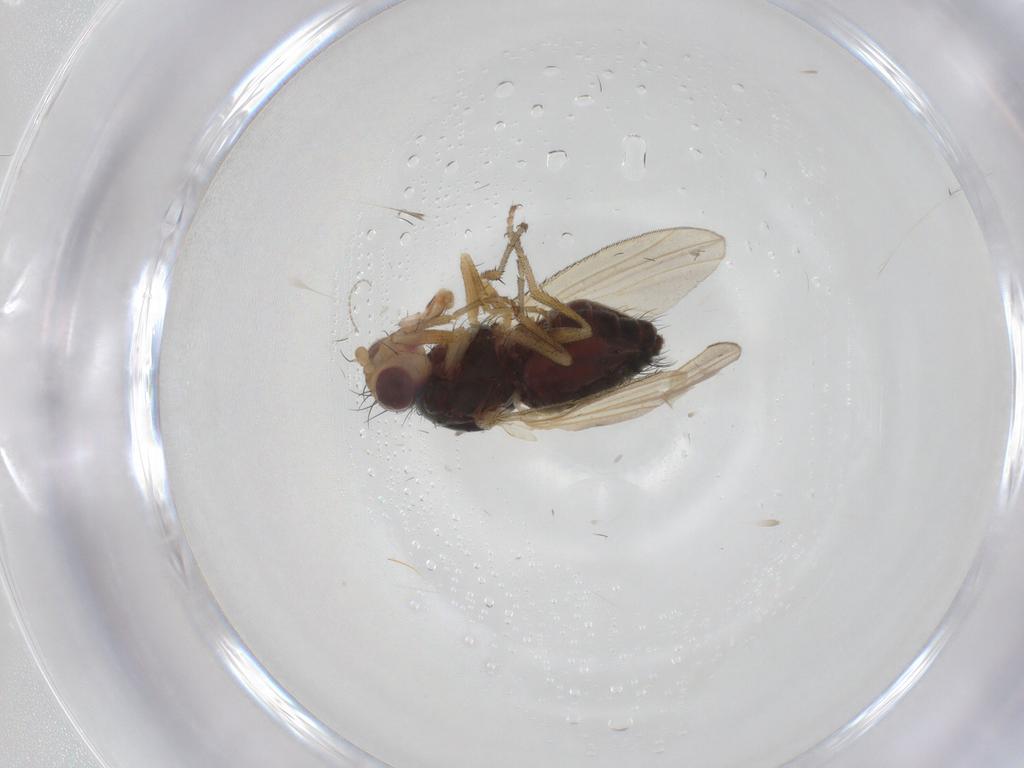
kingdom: Animalia
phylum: Arthropoda
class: Insecta
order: Diptera
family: Heleomyzidae
